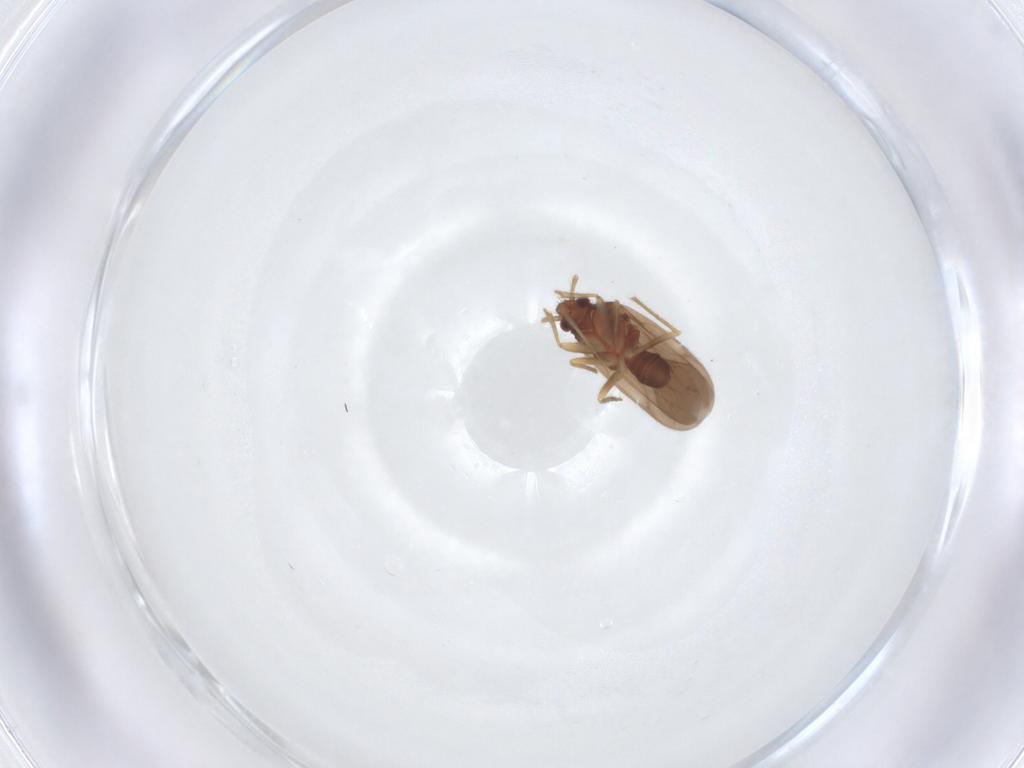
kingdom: Animalia
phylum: Arthropoda
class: Insecta
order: Hemiptera
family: Ceratocombidae
